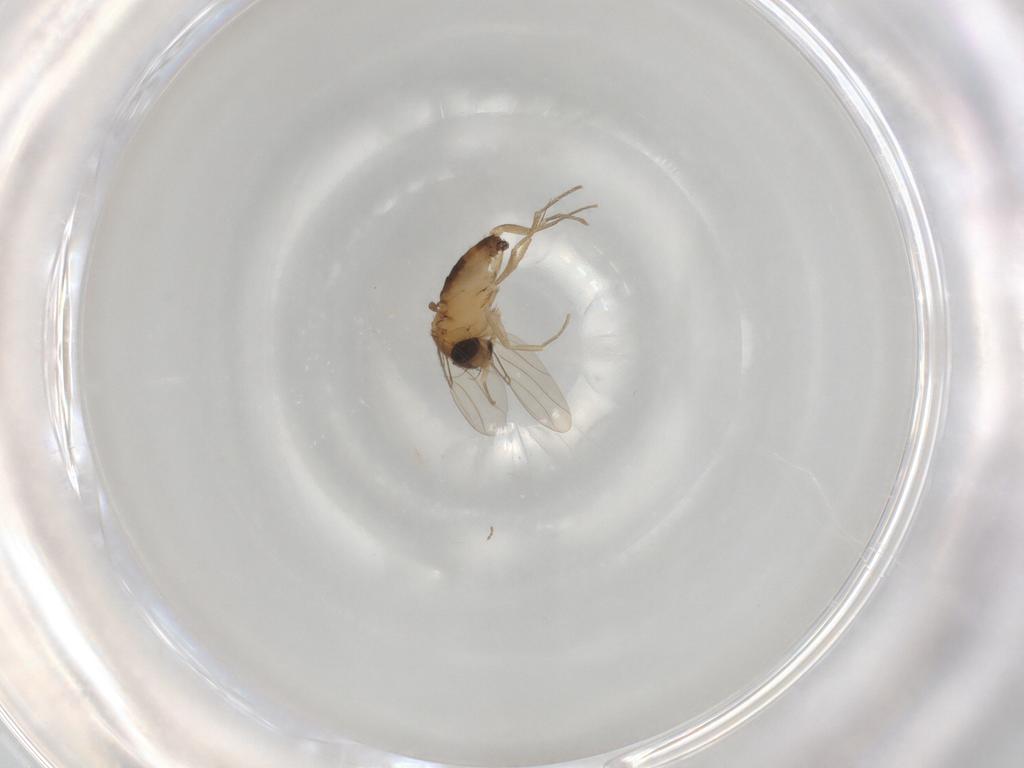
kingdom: Animalia
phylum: Arthropoda
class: Insecta
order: Diptera
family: Phoridae
